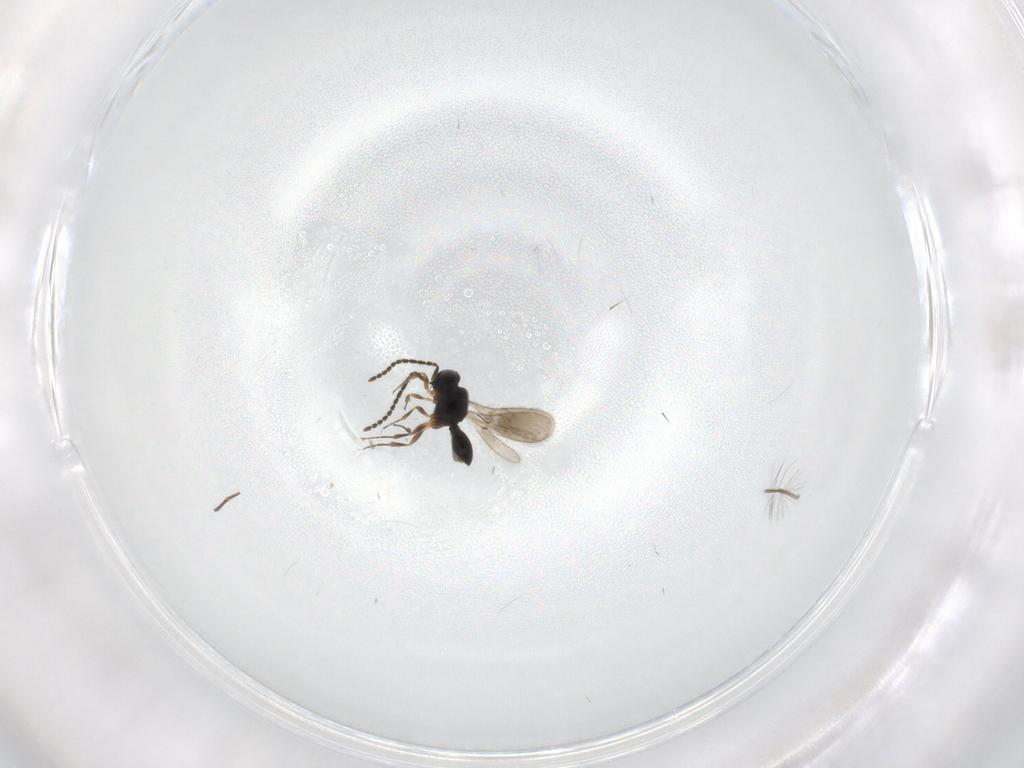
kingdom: Animalia
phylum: Arthropoda
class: Insecta
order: Hymenoptera
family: Scelionidae
